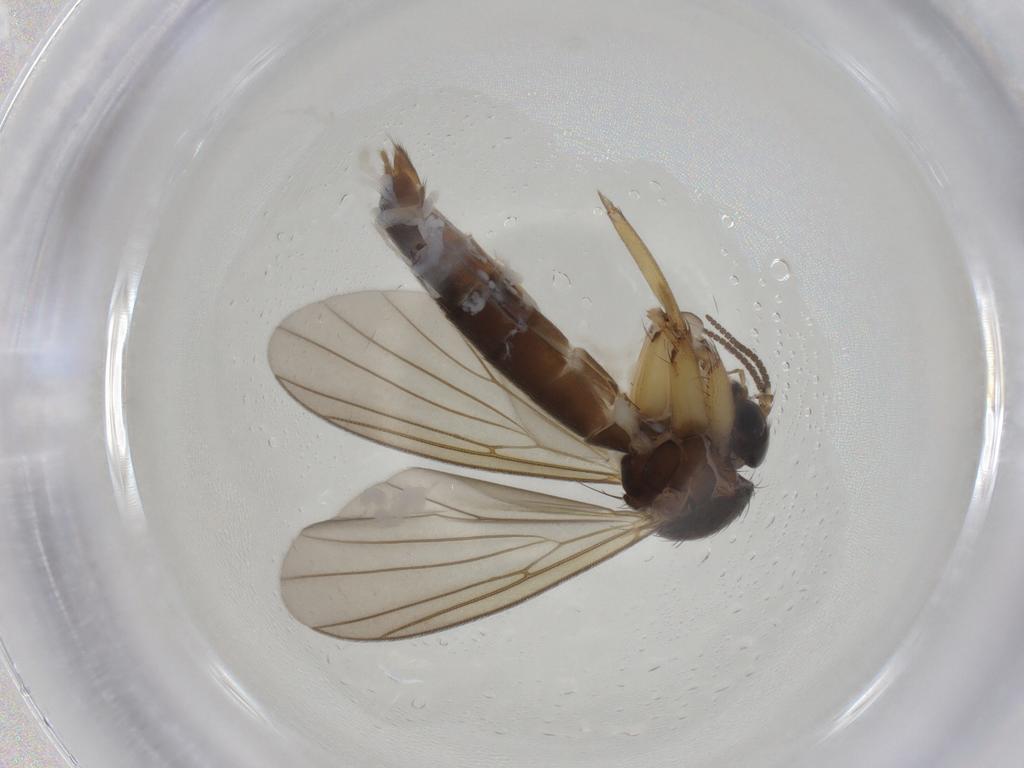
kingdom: Animalia
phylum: Arthropoda
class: Insecta
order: Diptera
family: Mycetophilidae
